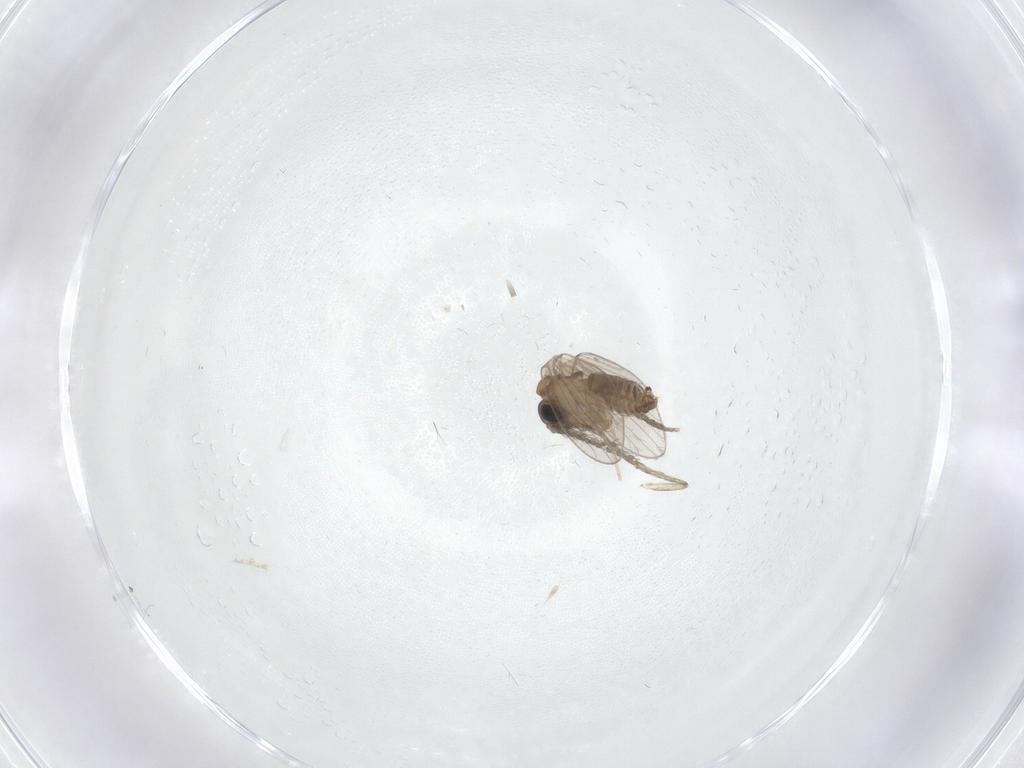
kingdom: Animalia
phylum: Arthropoda
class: Insecta
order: Diptera
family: Cecidomyiidae
